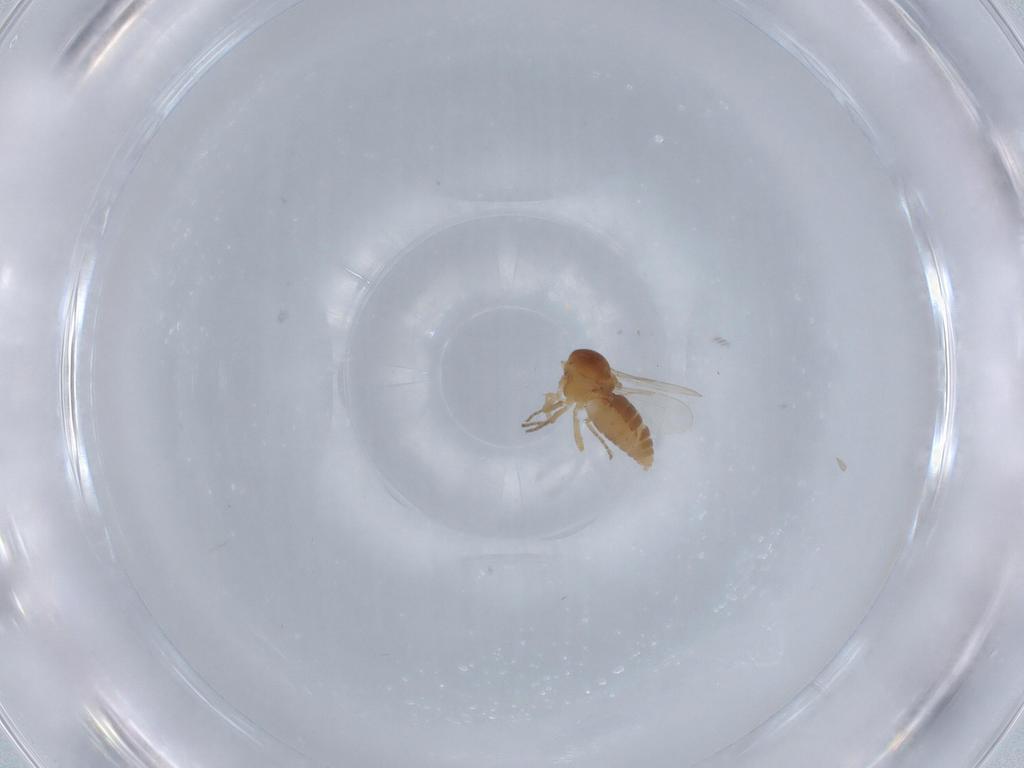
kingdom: Animalia
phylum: Arthropoda
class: Insecta
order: Diptera
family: Ceratopogonidae
